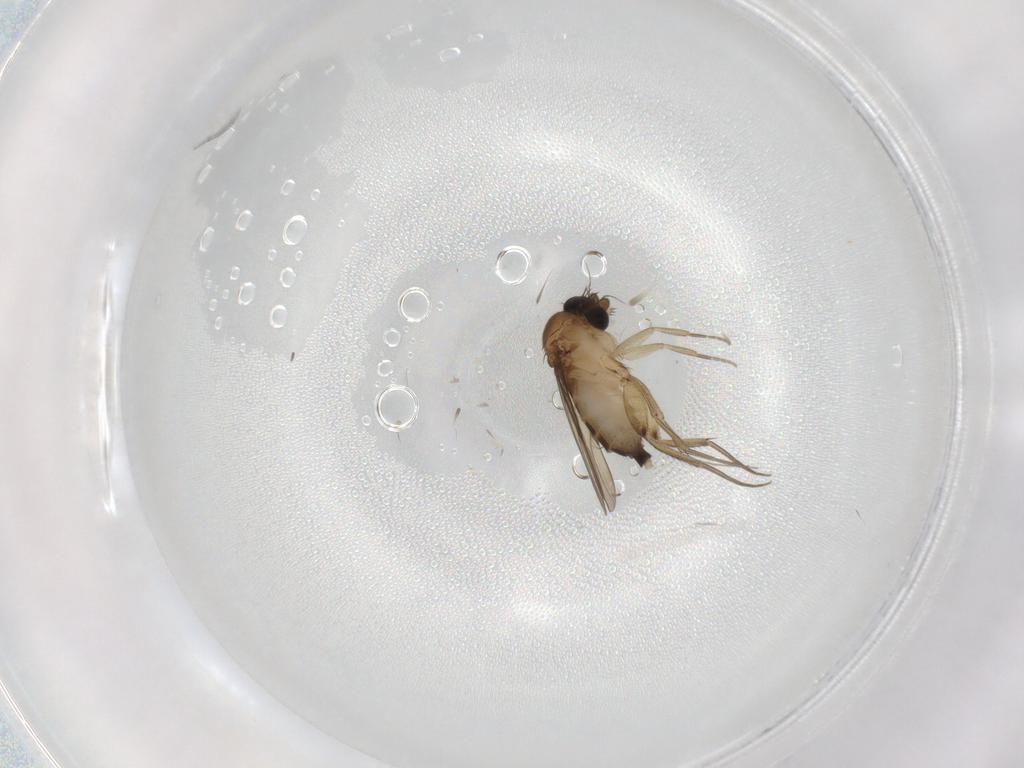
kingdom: Animalia
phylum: Arthropoda
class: Insecta
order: Diptera
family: Phoridae
